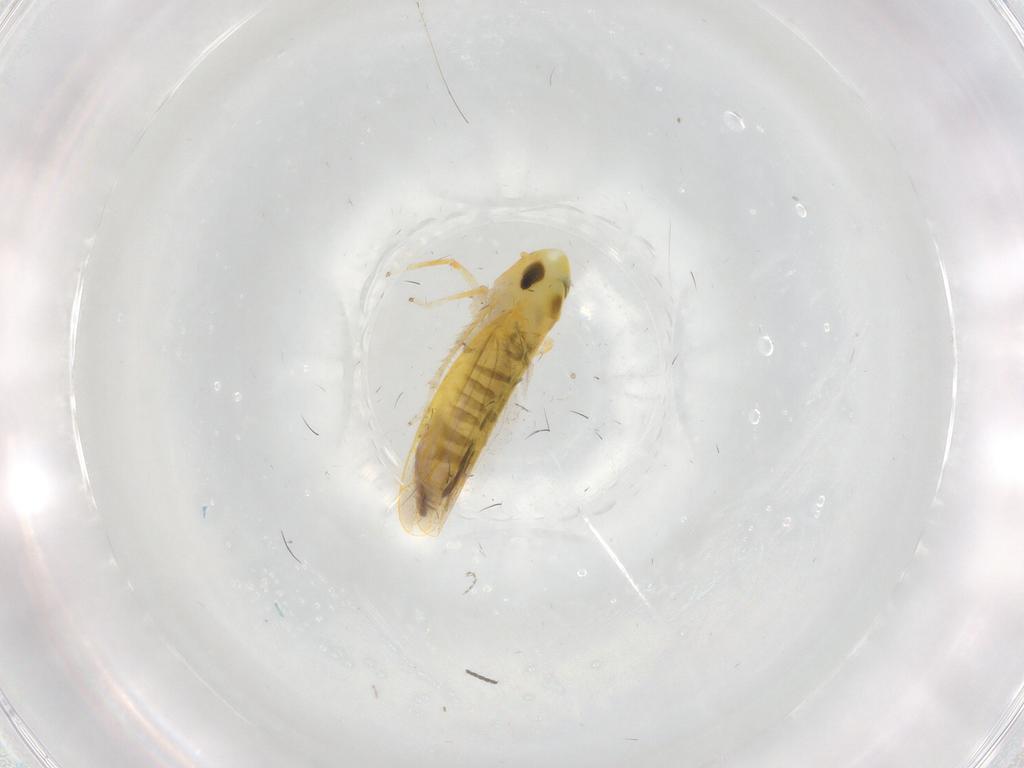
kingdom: Animalia
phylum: Arthropoda
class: Insecta
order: Hemiptera
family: Cicadellidae
